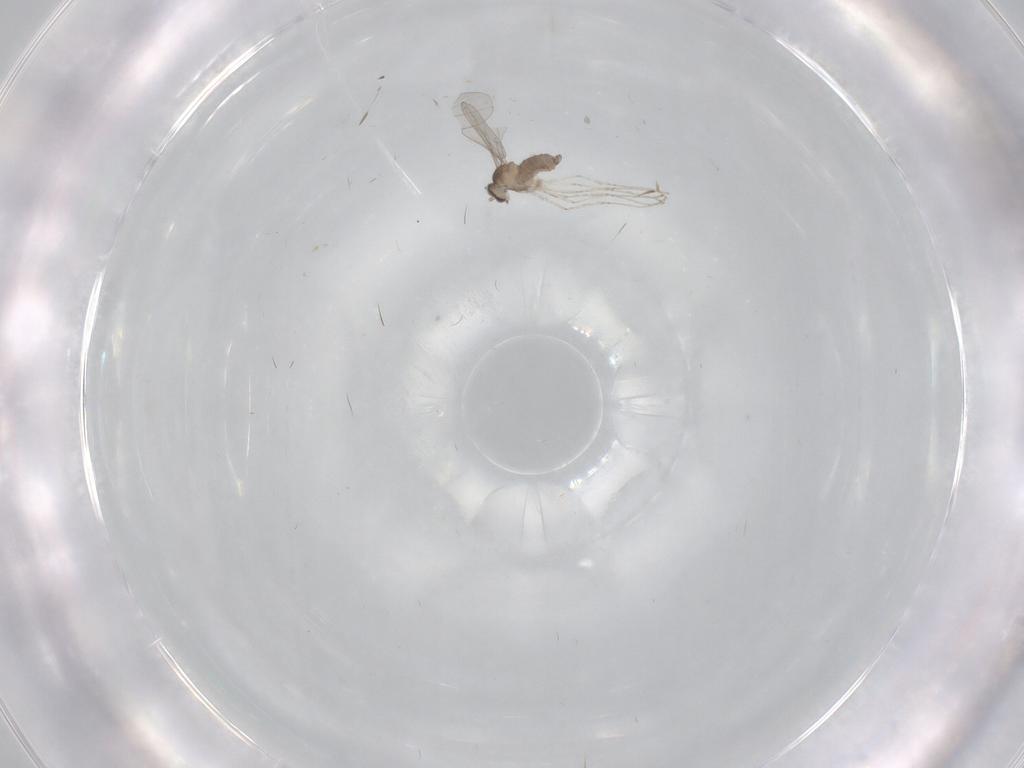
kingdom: Animalia
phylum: Arthropoda
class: Insecta
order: Diptera
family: Cecidomyiidae
